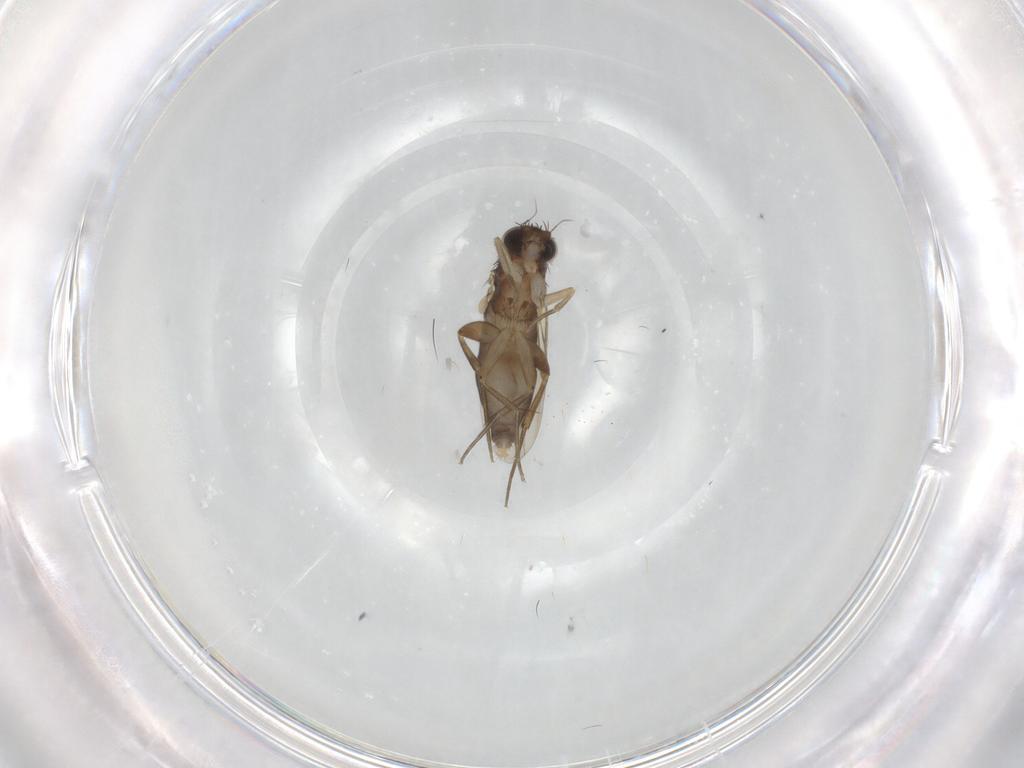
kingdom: Animalia
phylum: Arthropoda
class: Insecta
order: Diptera
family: Phoridae
